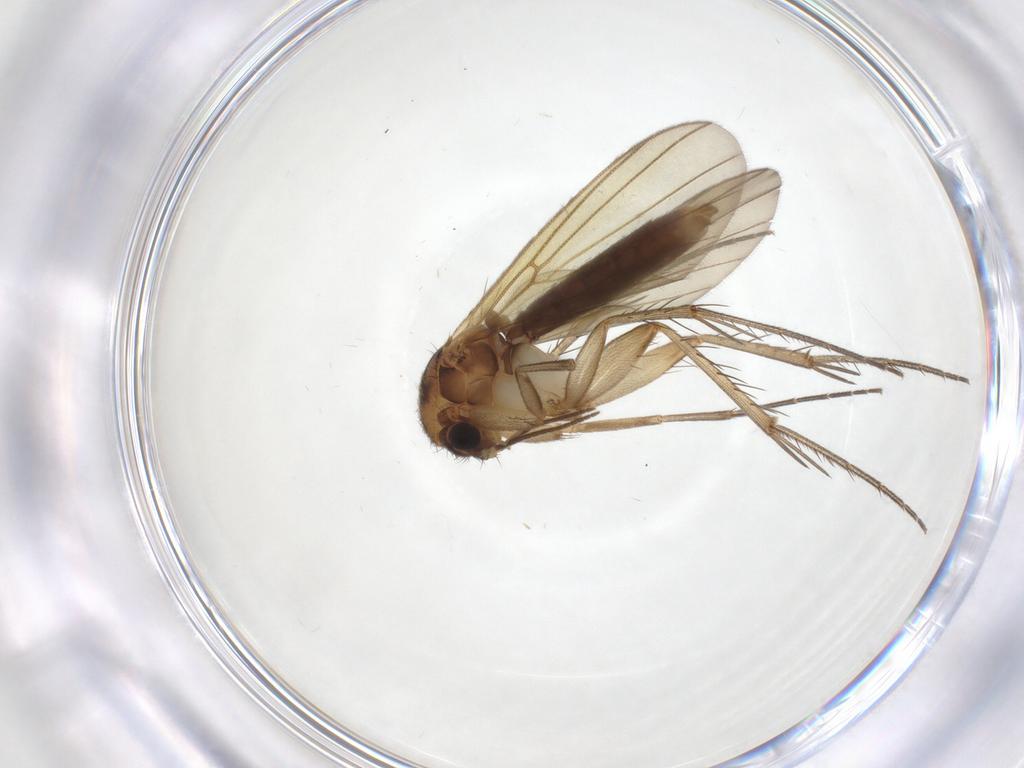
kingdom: Animalia
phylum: Arthropoda
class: Insecta
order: Diptera
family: Mycetophilidae
